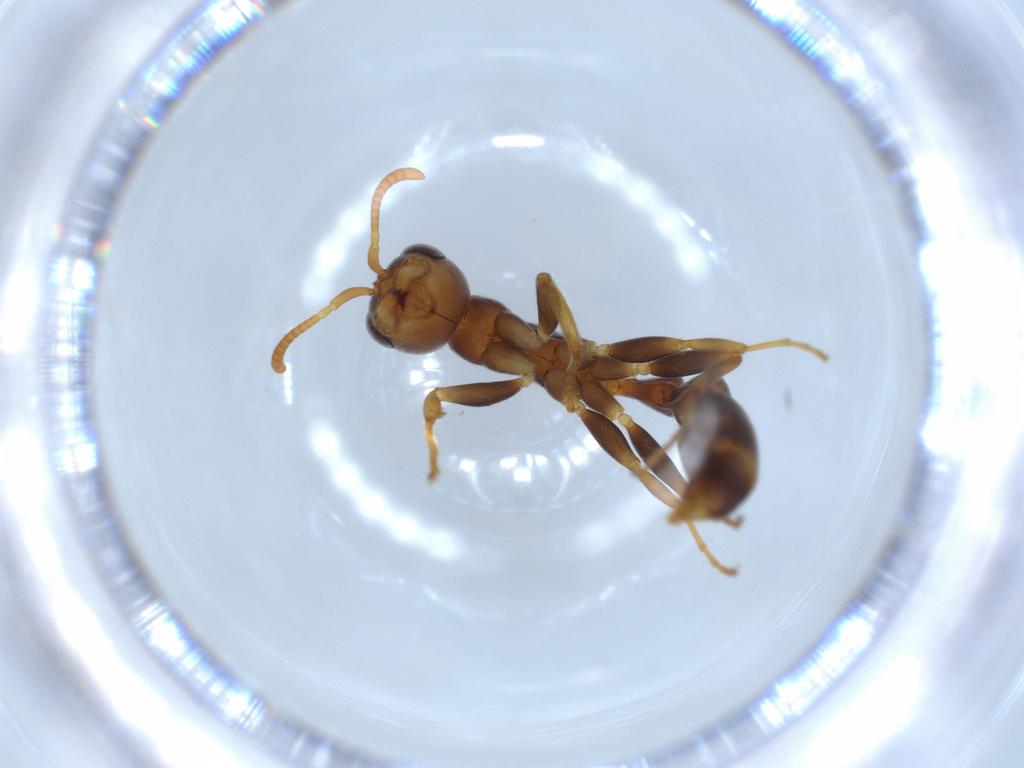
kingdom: Animalia
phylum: Arthropoda
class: Insecta
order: Hymenoptera
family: Formicidae
